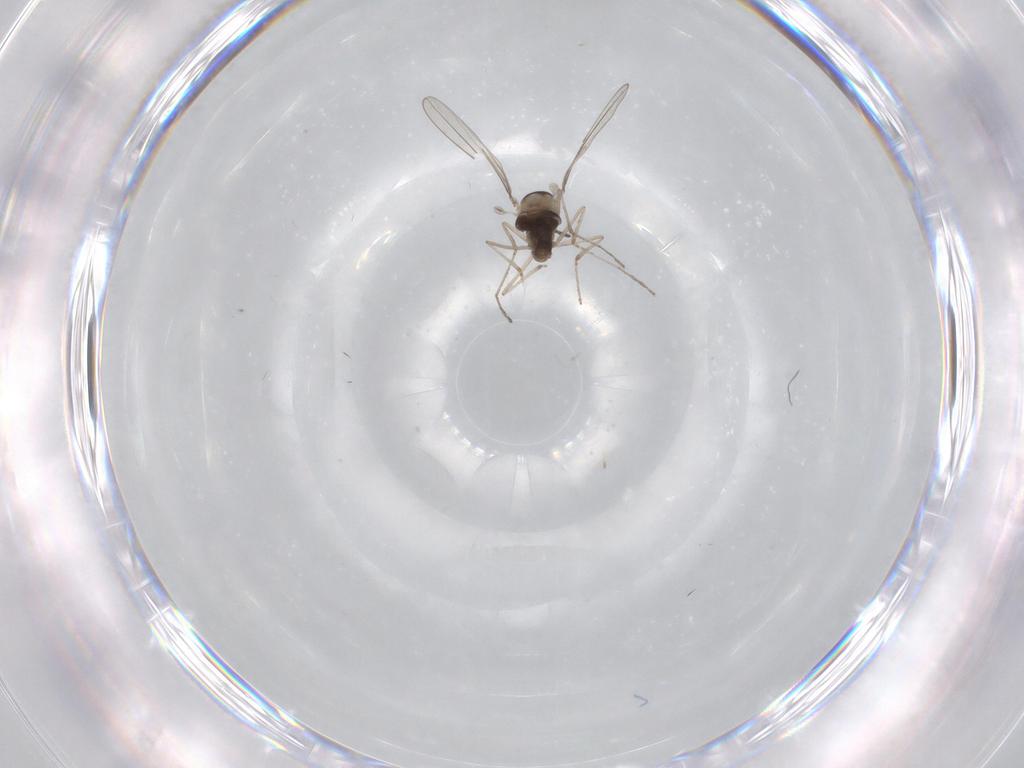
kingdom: Animalia
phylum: Arthropoda
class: Insecta
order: Diptera
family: Cecidomyiidae
